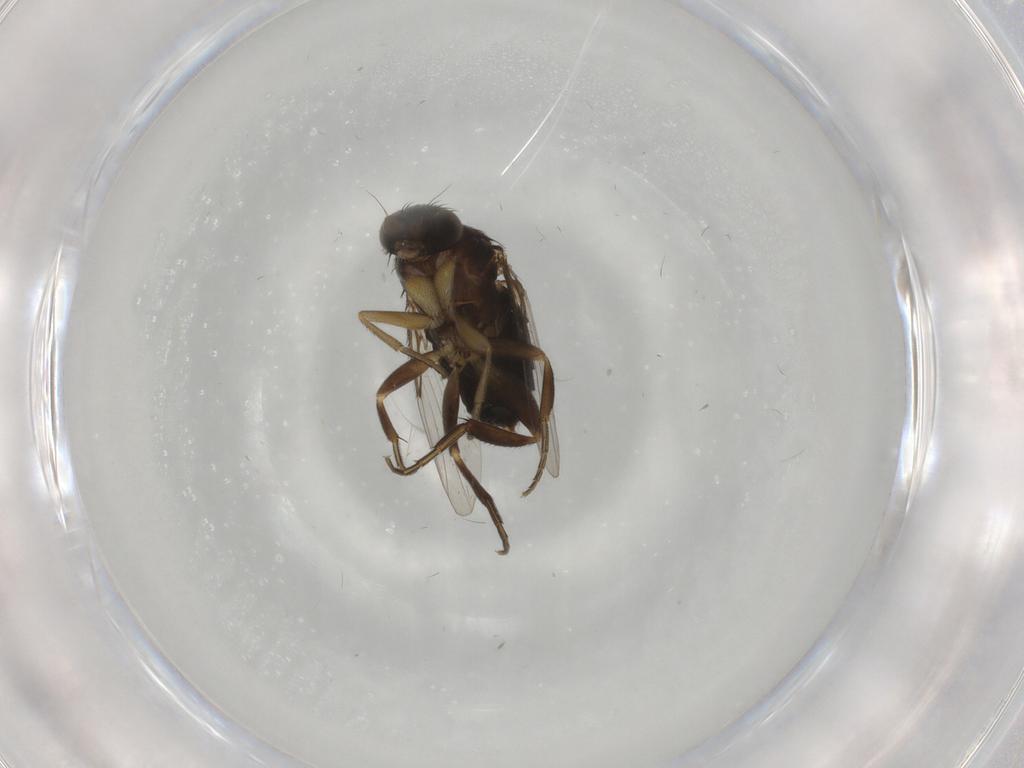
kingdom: Animalia
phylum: Arthropoda
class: Insecta
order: Diptera
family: Phoridae
